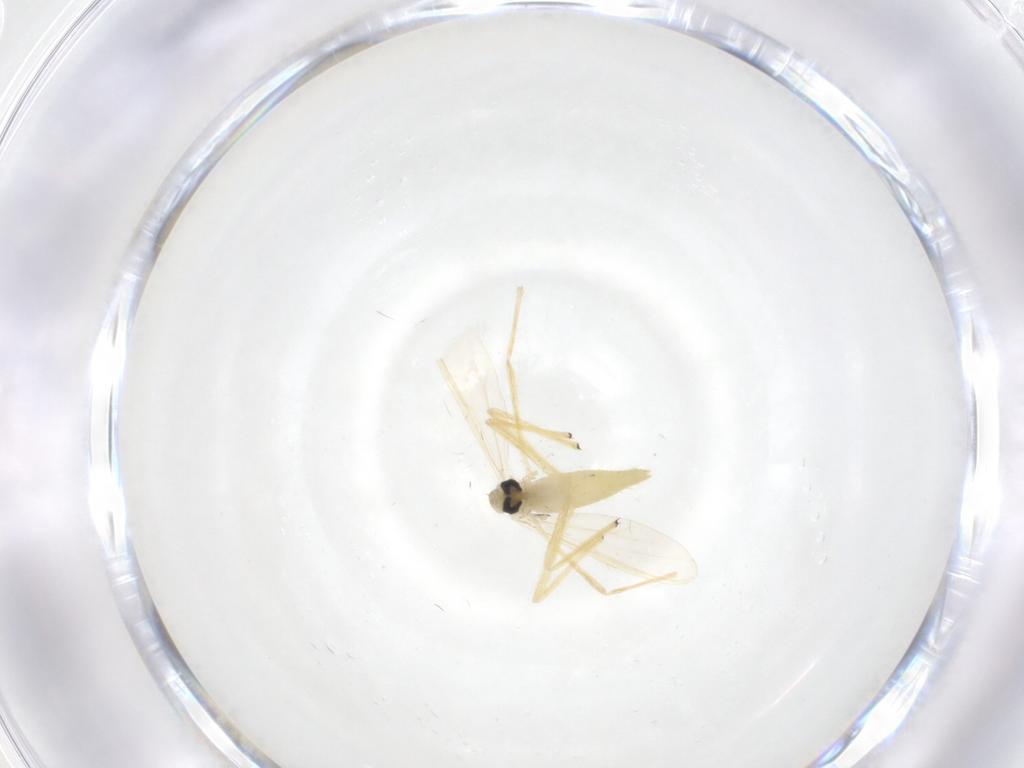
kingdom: Animalia
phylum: Arthropoda
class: Insecta
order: Diptera
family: Chironomidae
